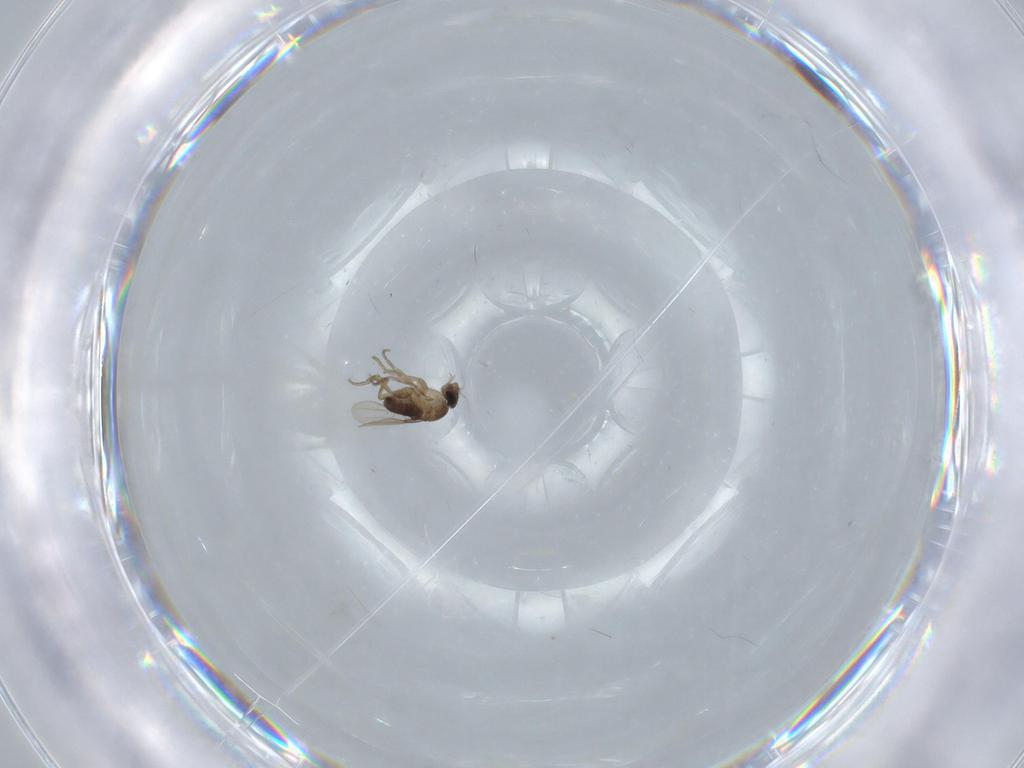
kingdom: Animalia
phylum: Arthropoda
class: Insecta
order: Diptera
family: Phoridae
